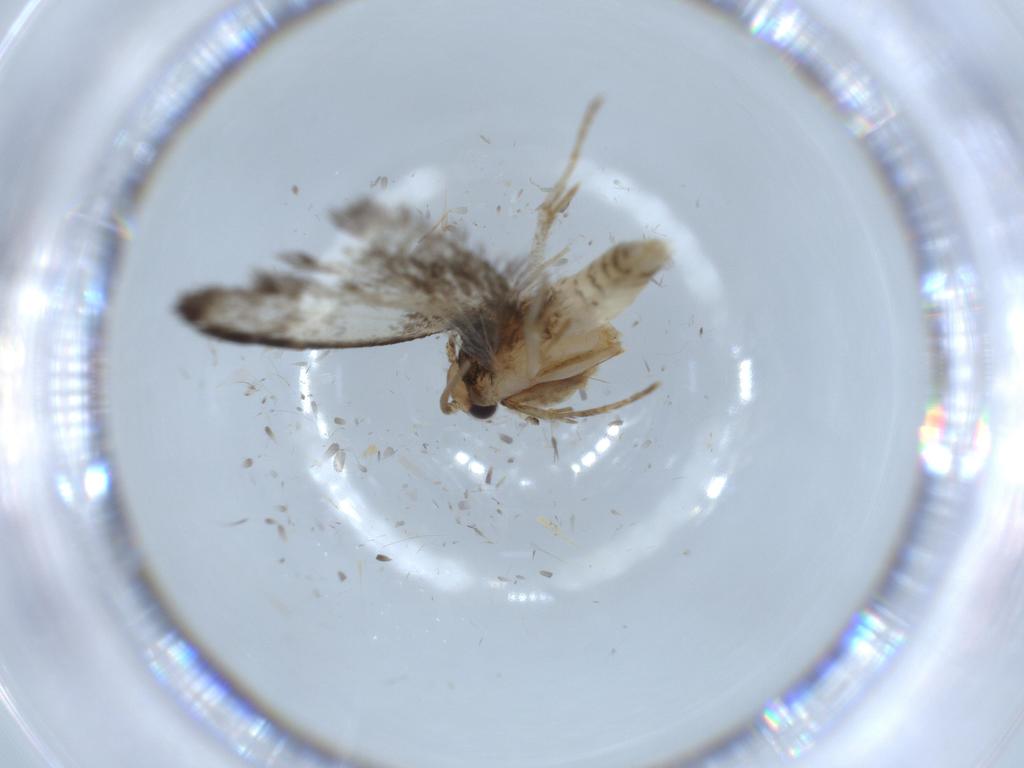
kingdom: Animalia
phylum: Arthropoda
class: Insecta
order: Lepidoptera
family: Tineidae
